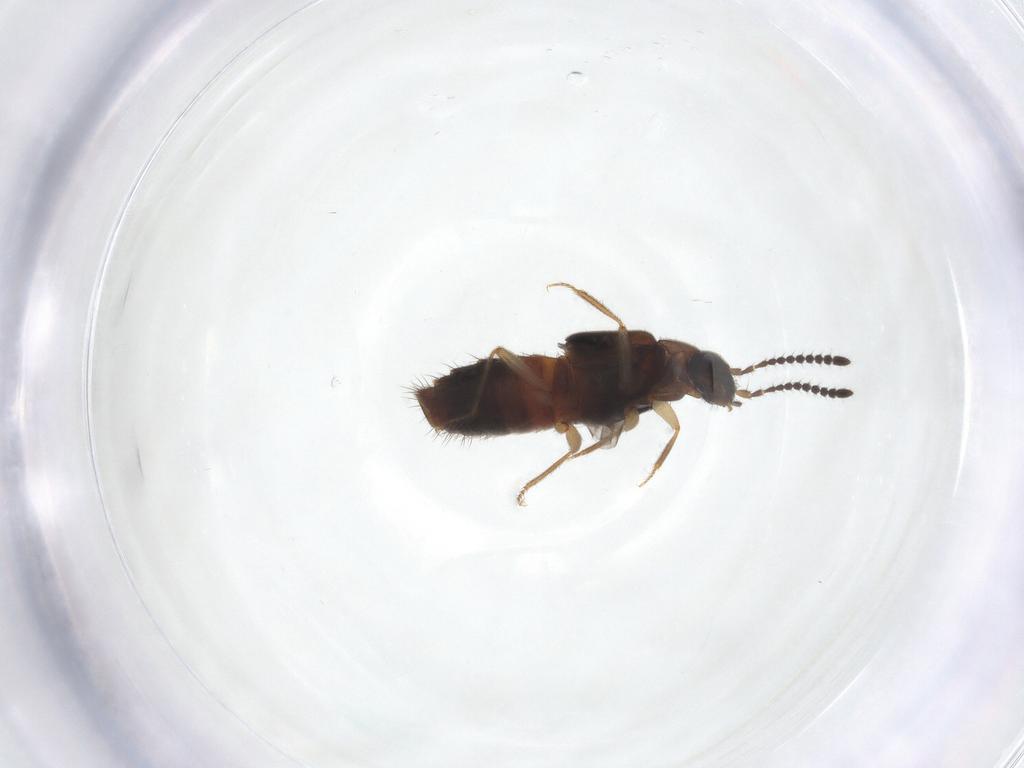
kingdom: Animalia
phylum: Arthropoda
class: Insecta
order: Coleoptera
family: Staphylinidae
